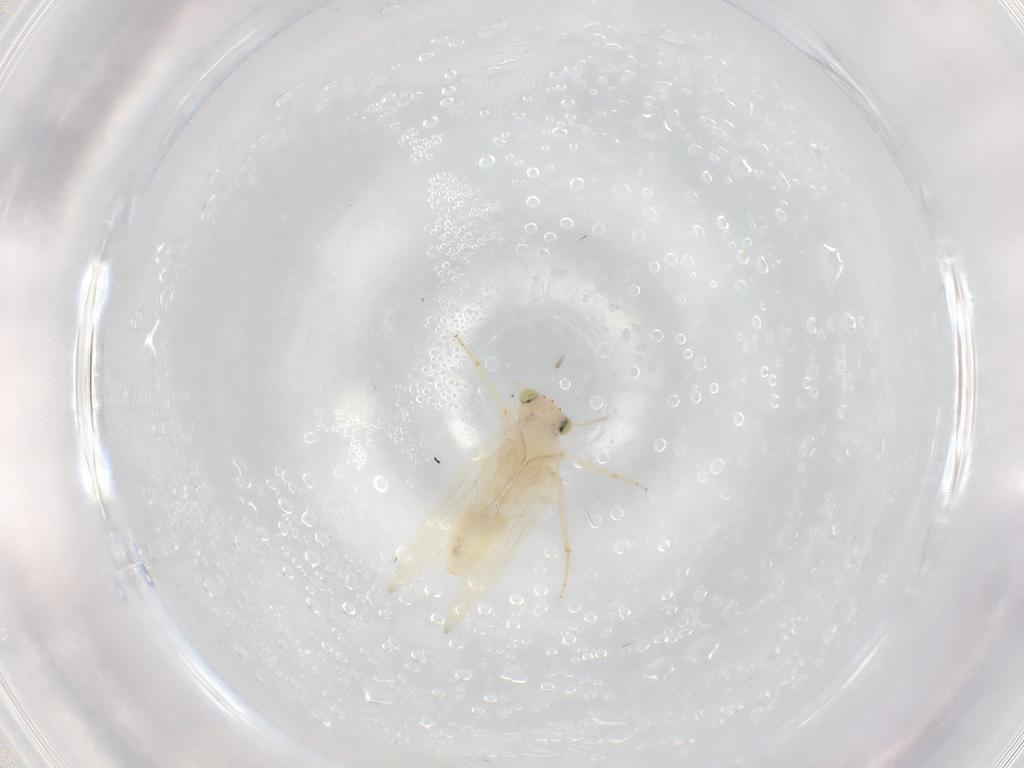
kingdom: Animalia
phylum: Arthropoda
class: Insecta
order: Psocodea
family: Lepidopsocidae
